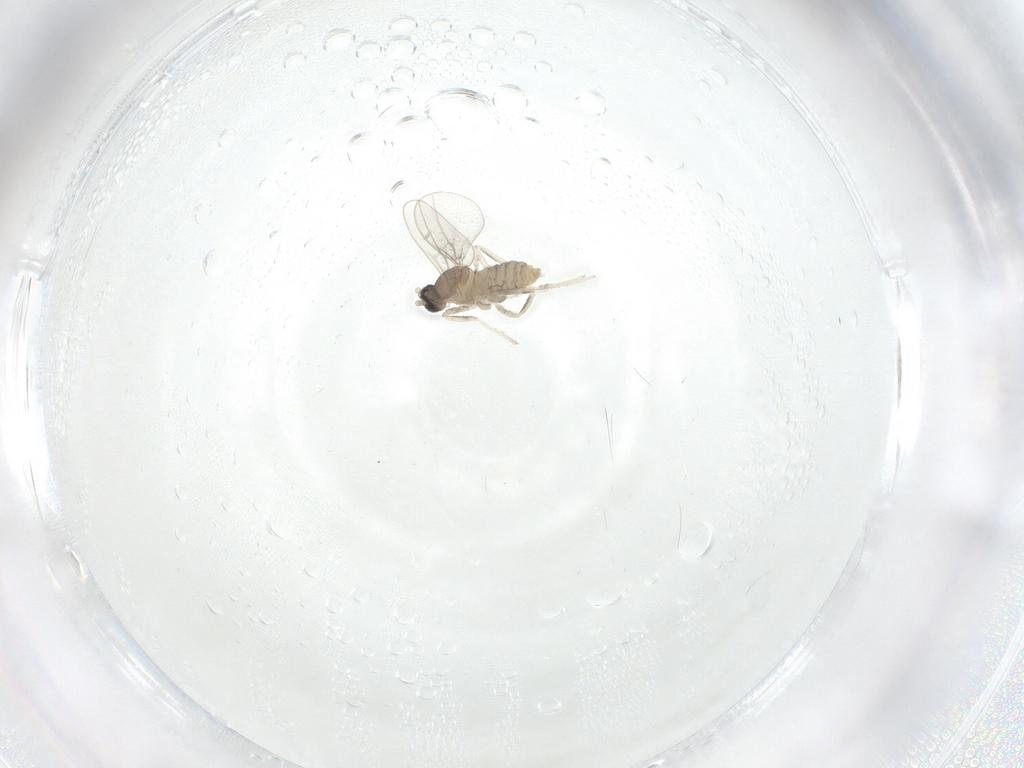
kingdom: Animalia
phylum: Arthropoda
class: Insecta
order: Diptera
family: Cecidomyiidae
